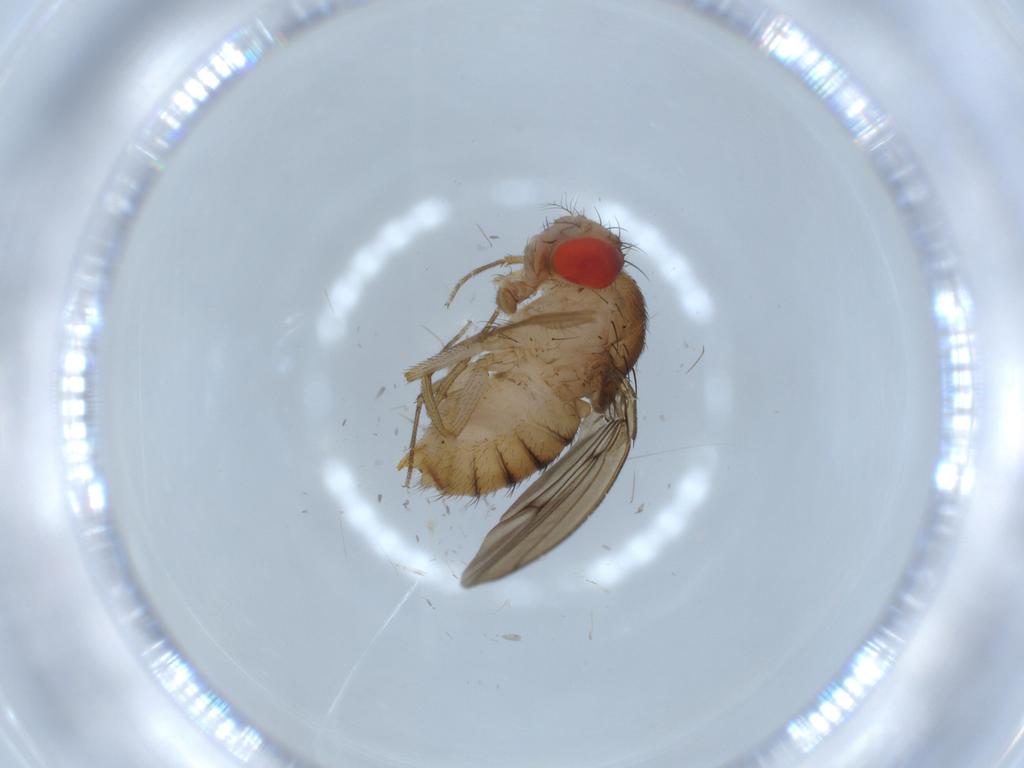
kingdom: Animalia
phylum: Arthropoda
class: Insecta
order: Diptera
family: Drosophilidae
